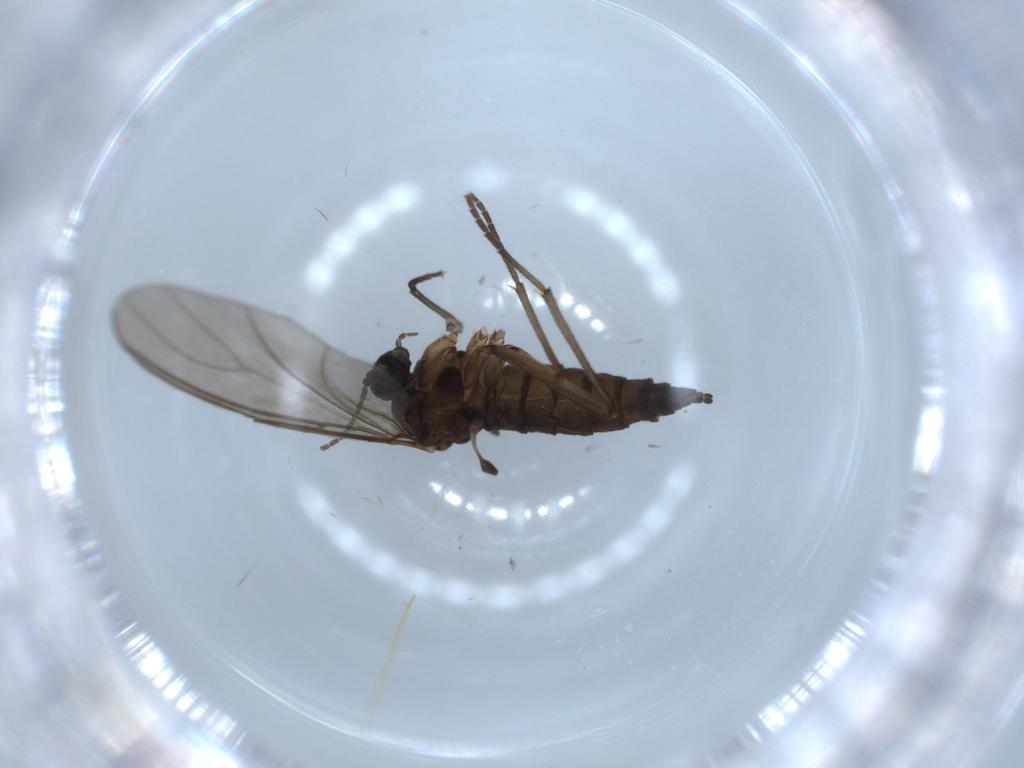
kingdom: Animalia
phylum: Arthropoda
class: Insecta
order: Diptera
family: Sciaridae
